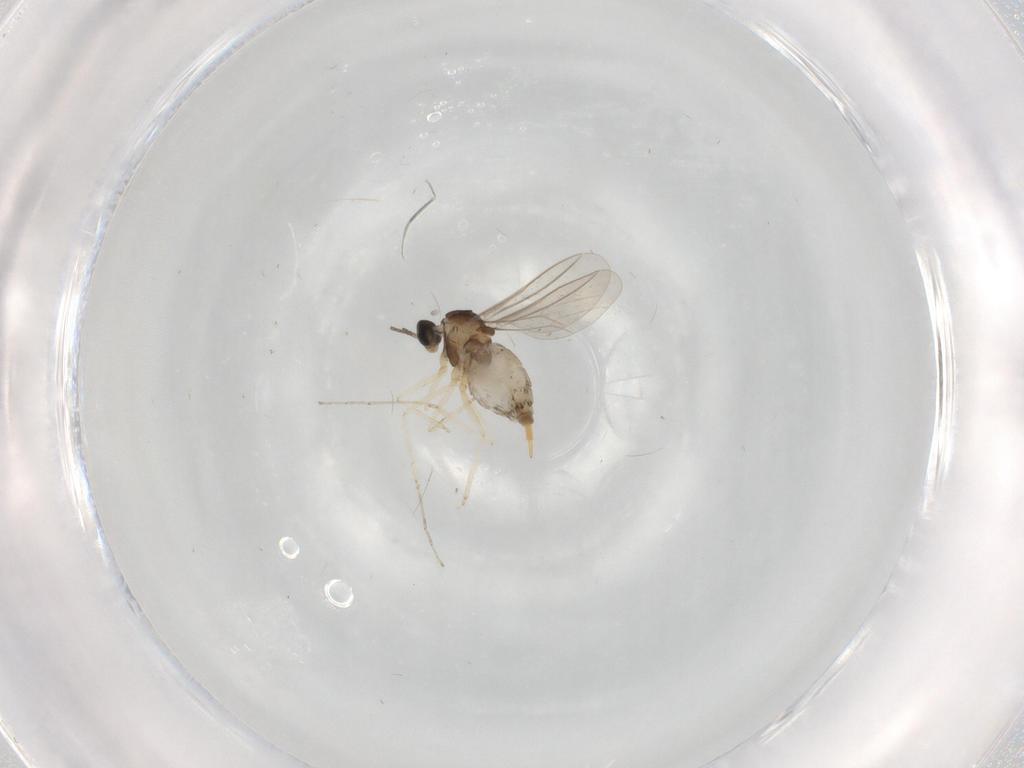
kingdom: Animalia
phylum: Arthropoda
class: Insecta
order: Diptera
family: Cecidomyiidae
